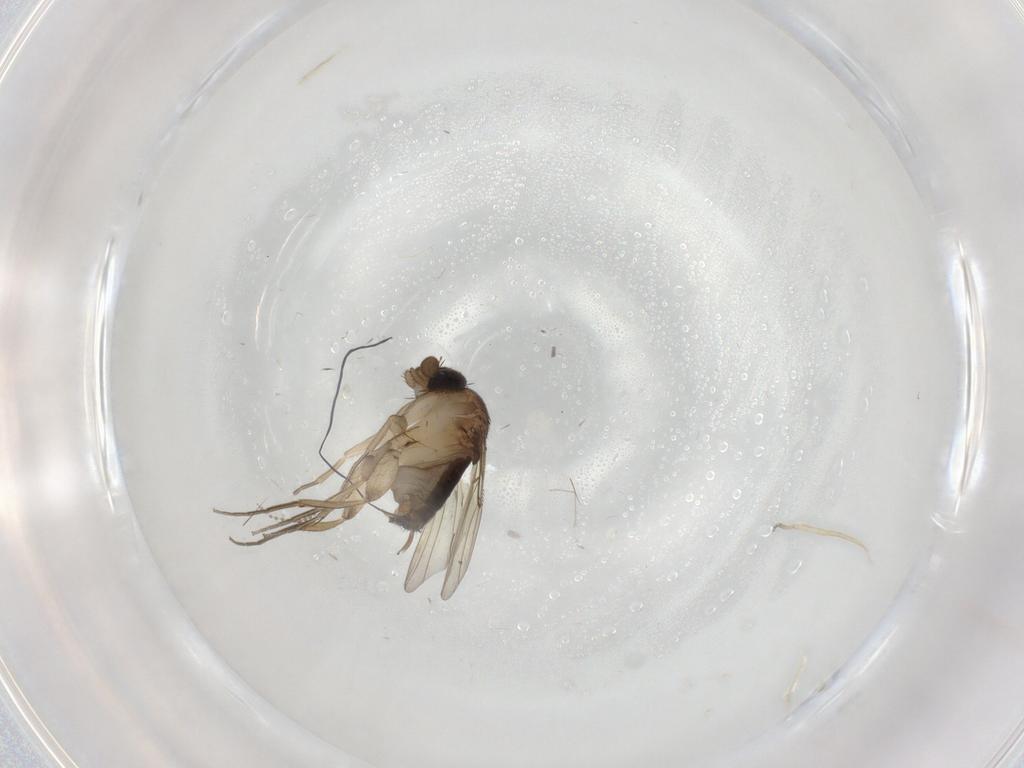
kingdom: Animalia
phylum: Arthropoda
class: Insecta
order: Diptera
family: Phoridae
